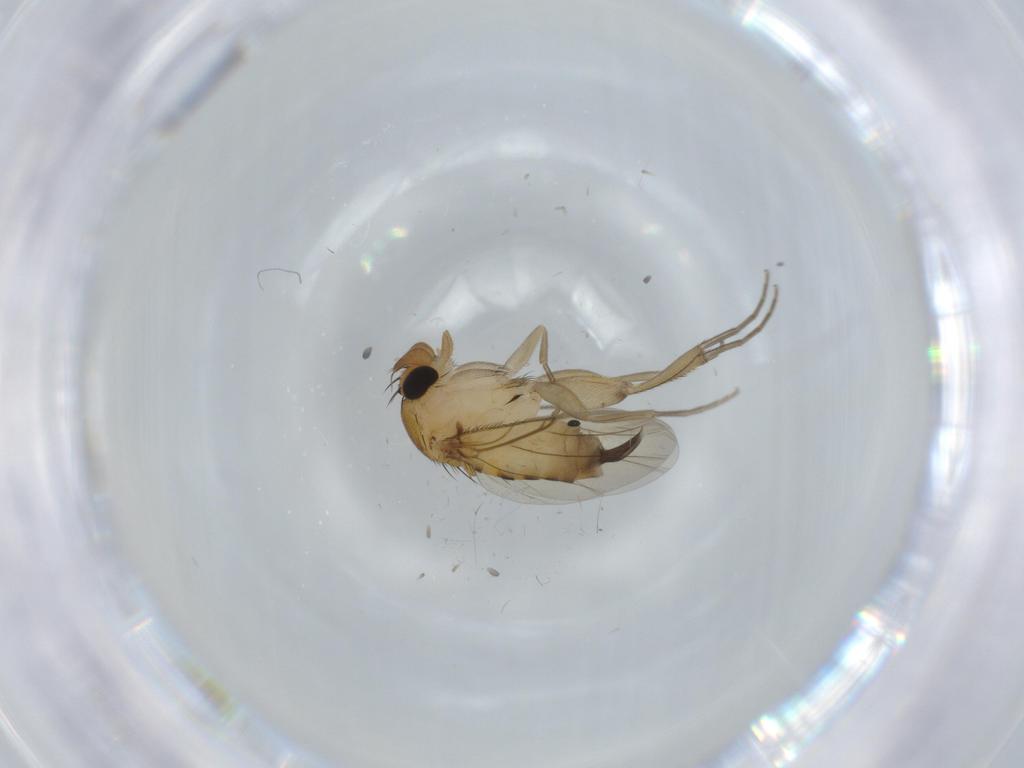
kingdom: Animalia
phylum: Arthropoda
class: Insecta
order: Diptera
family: Phoridae
